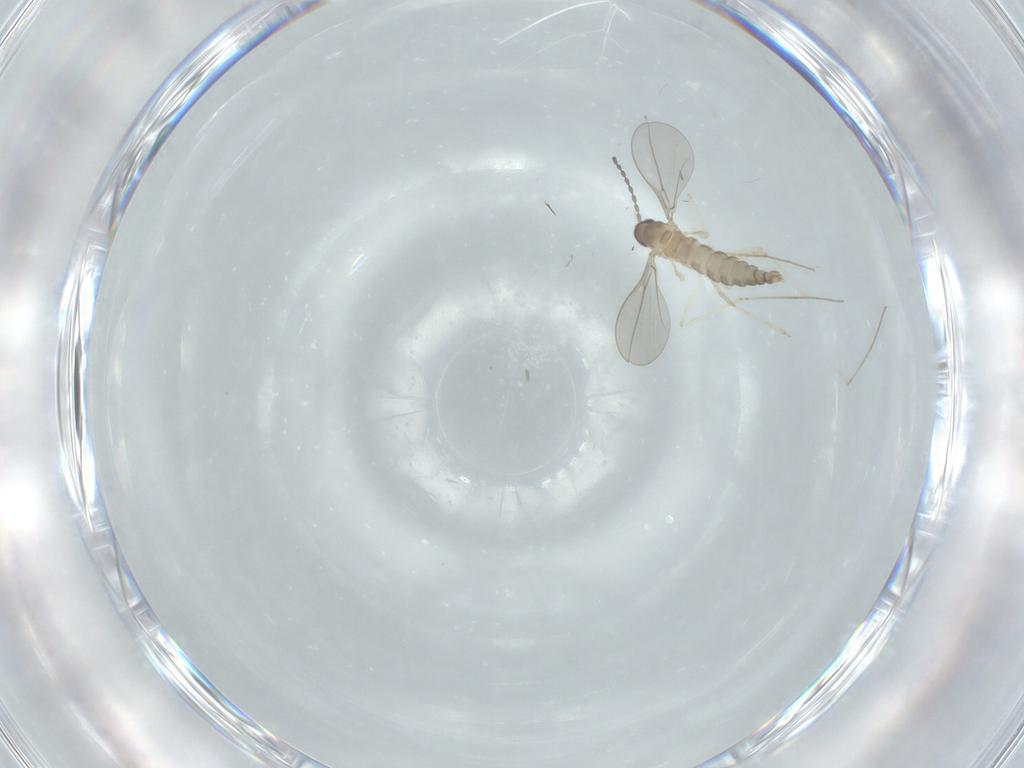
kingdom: Animalia
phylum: Arthropoda
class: Insecta
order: Diptera
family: Cecidomyiidae
